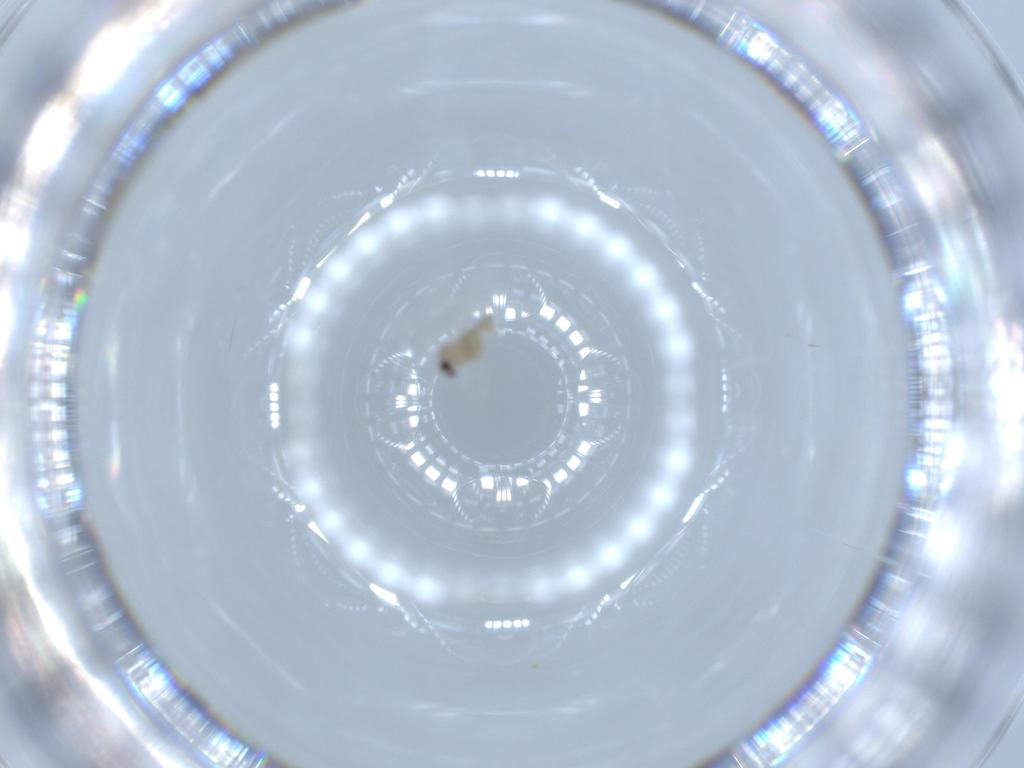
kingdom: Animalia
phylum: Arthropoda
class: Insecta
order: Diptera
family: Cecidomyiidae
